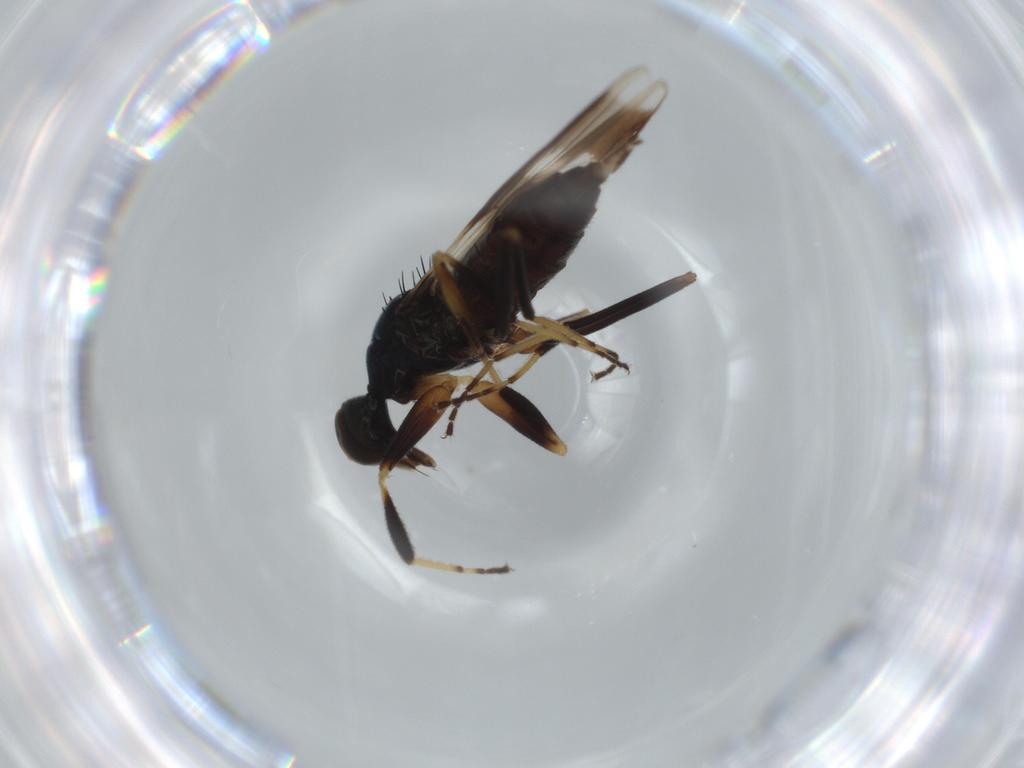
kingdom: Animalia
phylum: Arthropoda
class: Insecta
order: Diptera
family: Hybotidae
